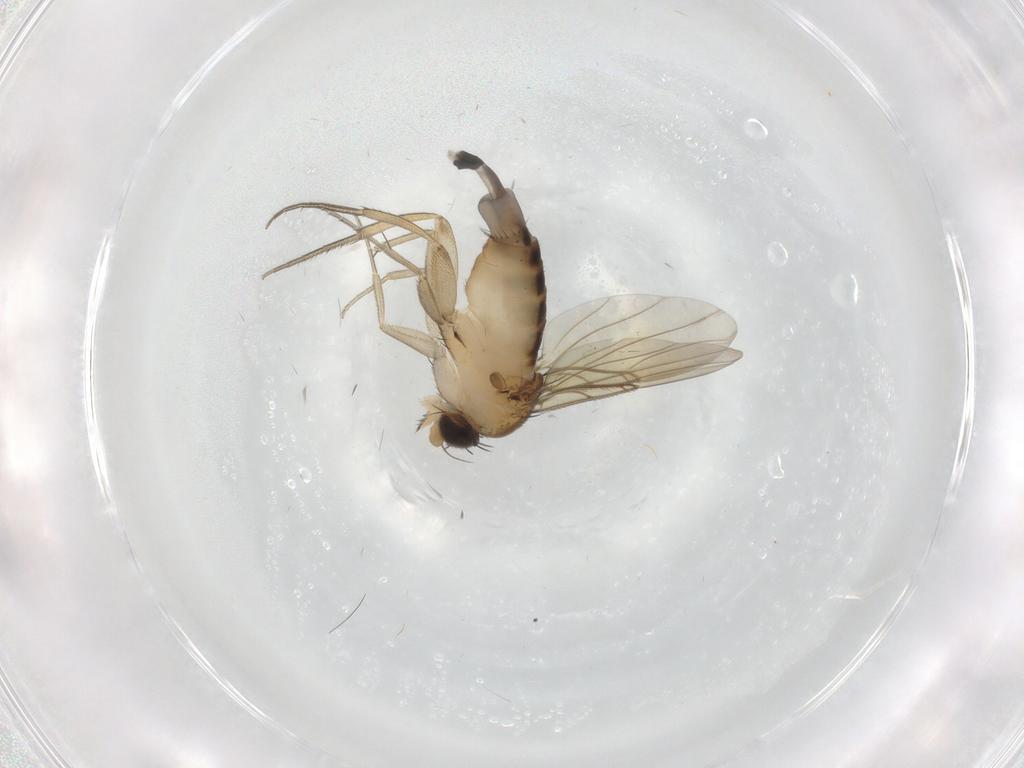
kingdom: Animalia
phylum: Arthropoda
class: Insecta
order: Diptera
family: Phoridae
